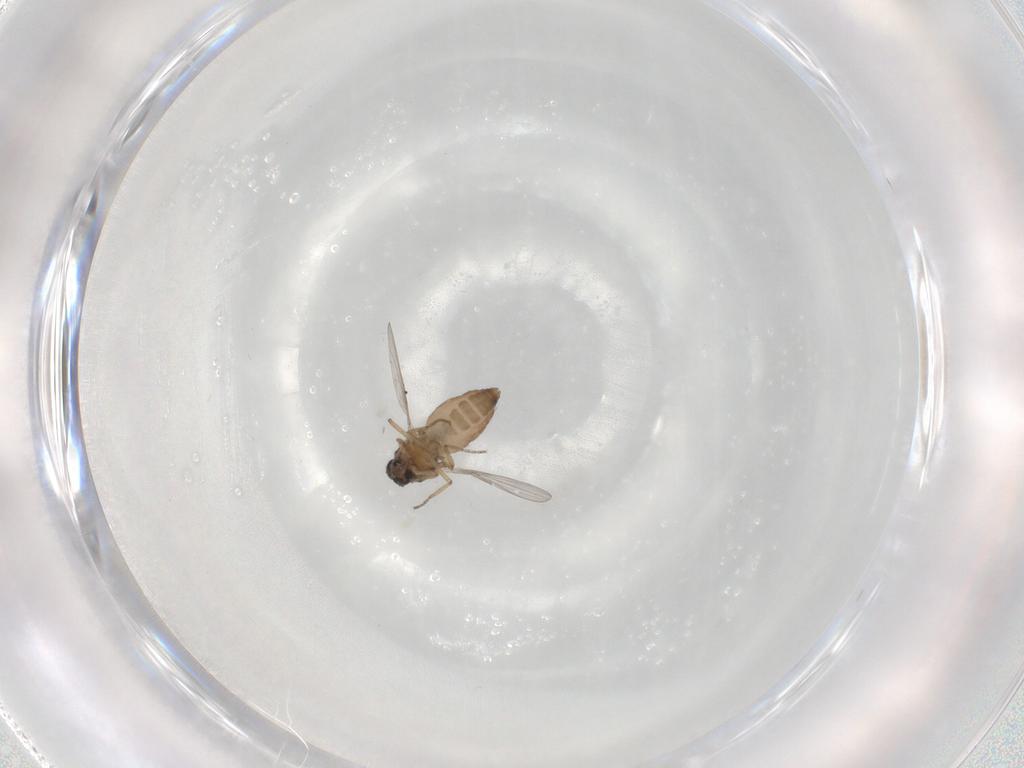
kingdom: Animalia
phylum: Arthropoda
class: Insecta
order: Diptera
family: Ceratopogonidae
